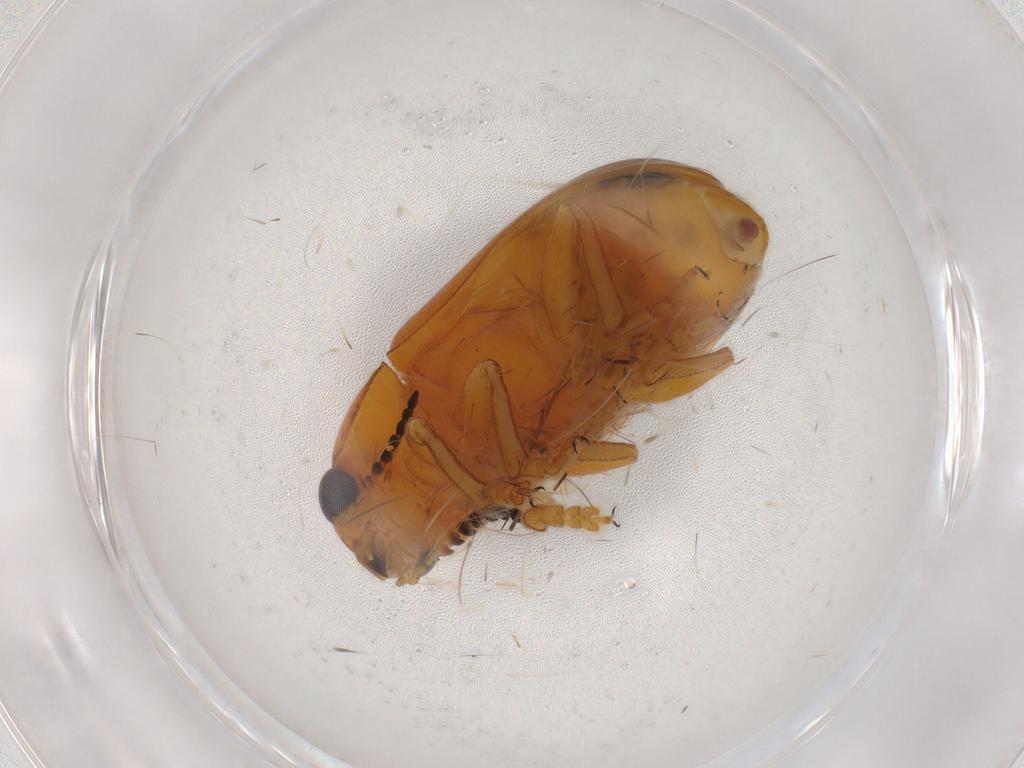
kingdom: Animalia
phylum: Arthropoda
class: Insecta
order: Coleoptera
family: Chrysomelidae
